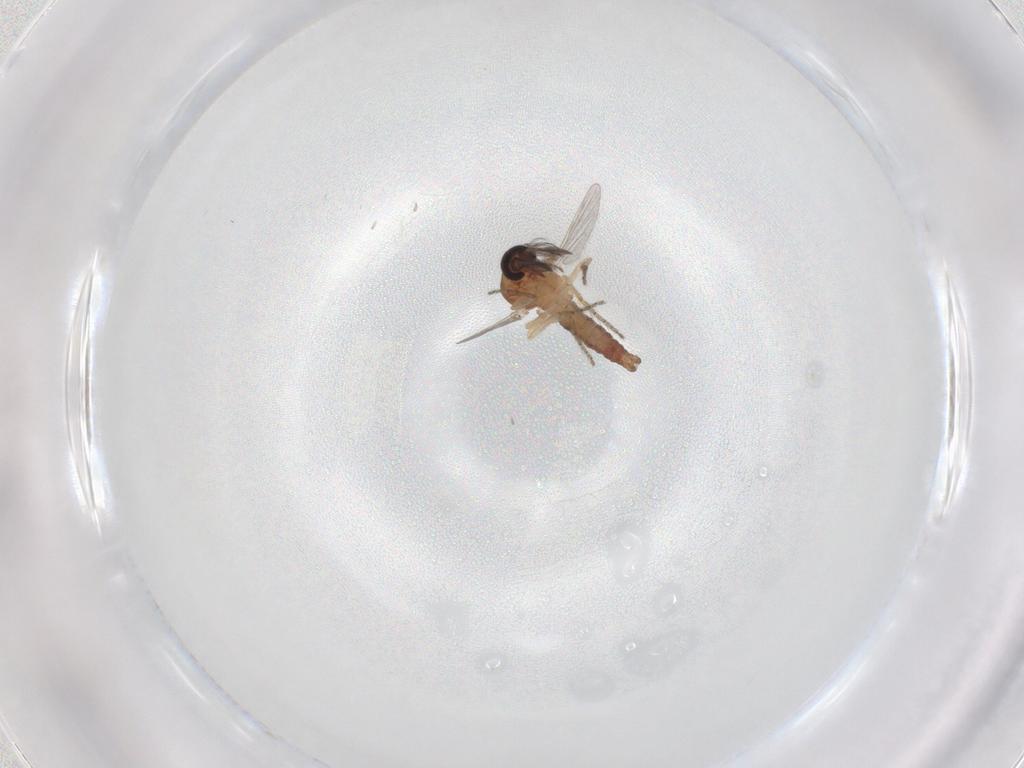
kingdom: Animalia
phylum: Arthropoda
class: Insecta
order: Diptera
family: Ceratopogonidae
